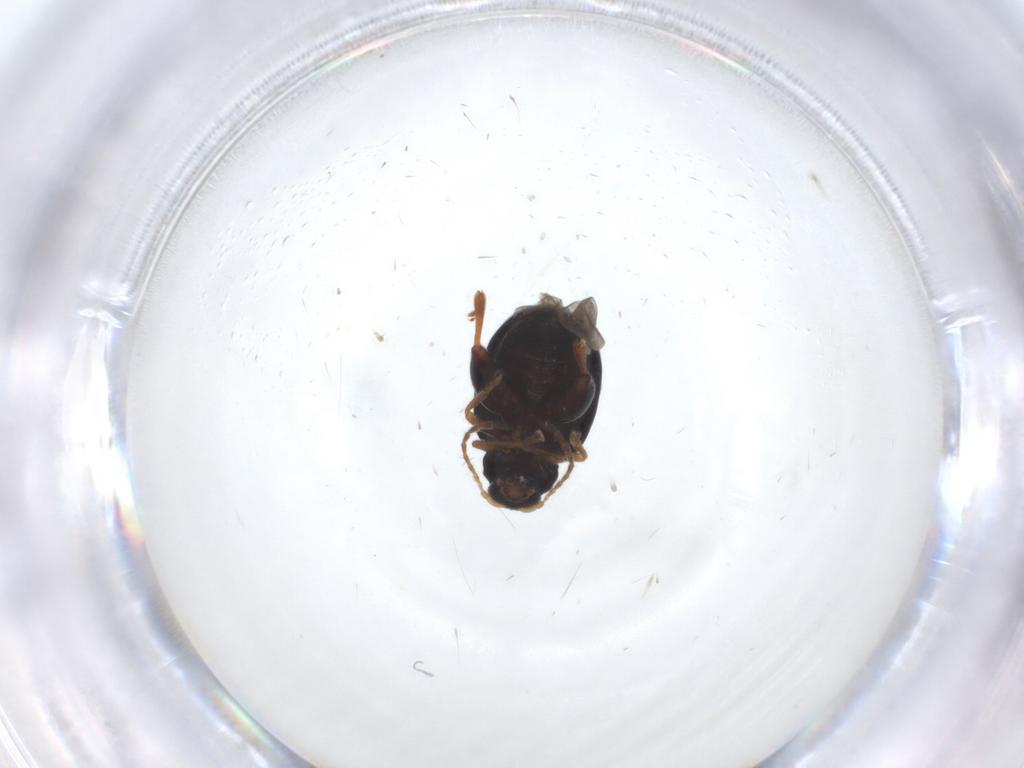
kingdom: Animalia
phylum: Arthropoda
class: Insecta
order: Coleoptera
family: Chrysomelidae
